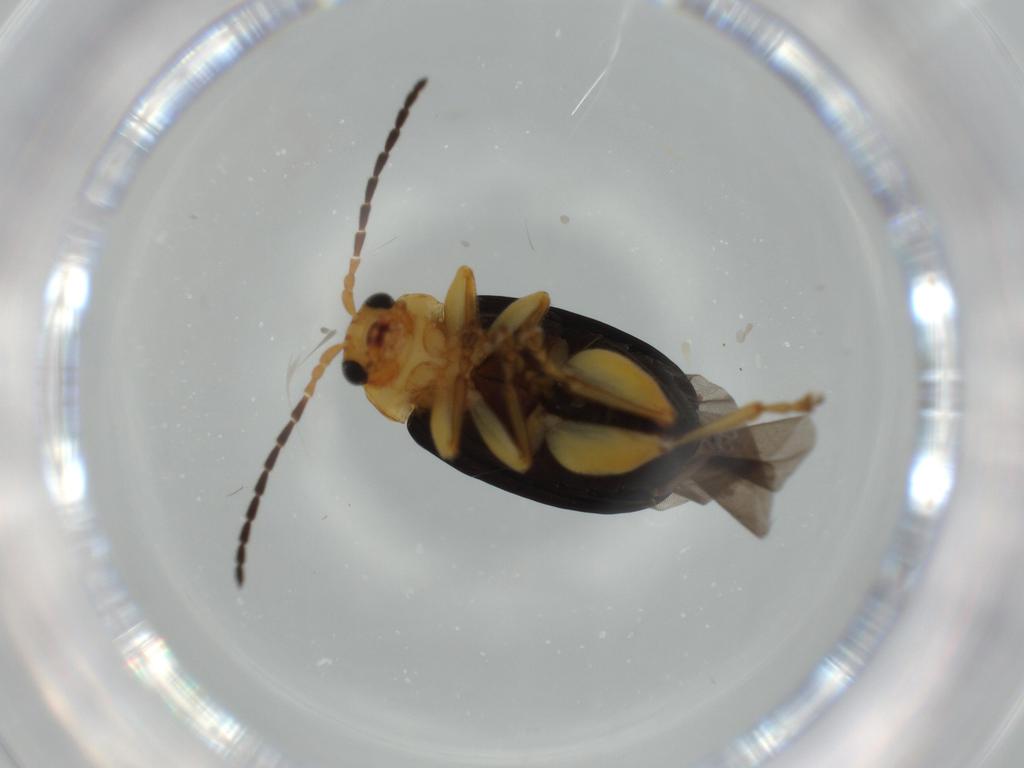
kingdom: Animalia
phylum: Arthropoda
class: Insecta
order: Coleoptera
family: Chrysomelidae
